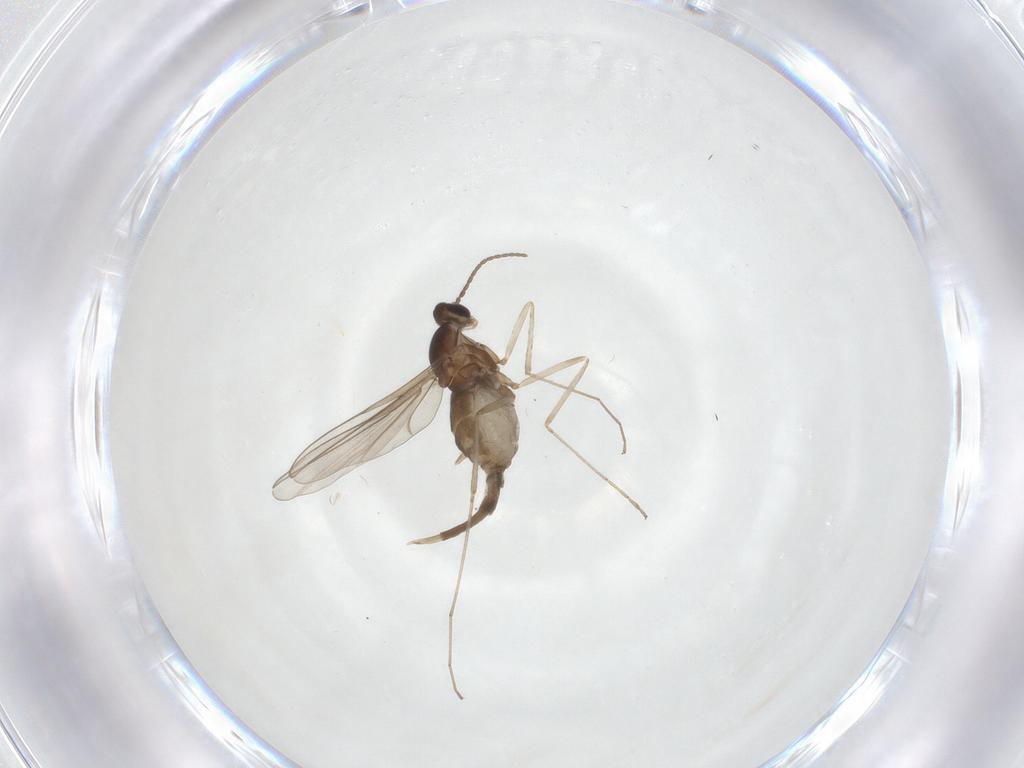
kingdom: Animalia
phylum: Arthropoda
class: Insecta
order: Diptera
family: Cecidomyiidae
